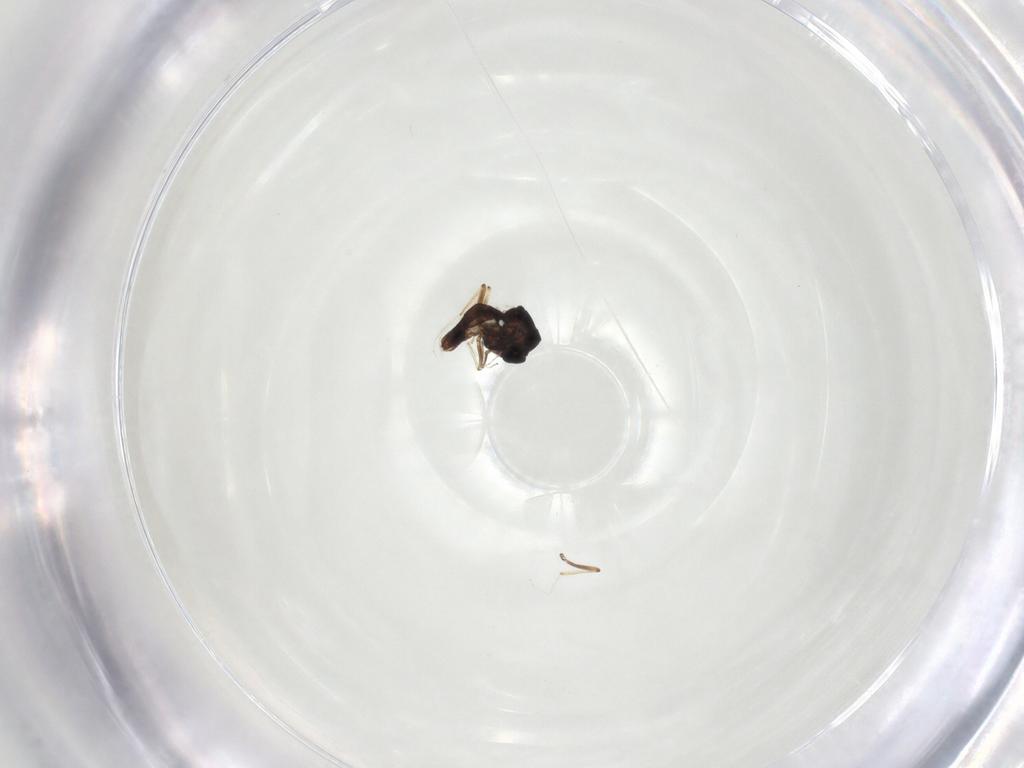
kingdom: Animalia
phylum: Arthropoda
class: Insecta
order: Diptera
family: Ceratopogonidae
